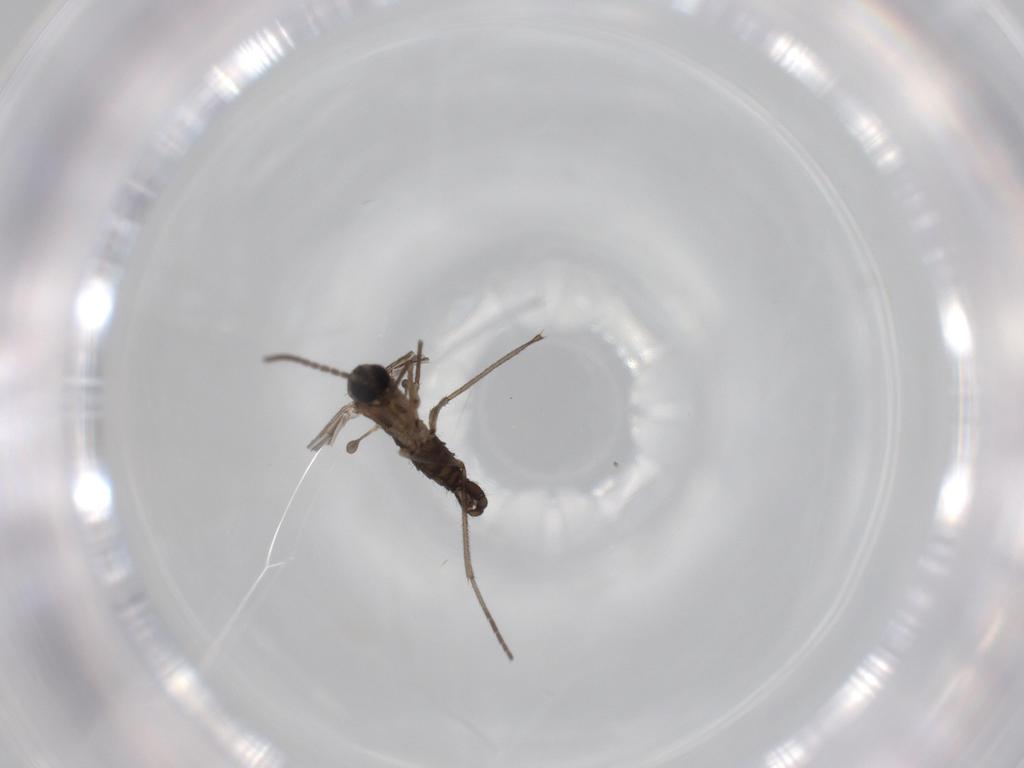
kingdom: Animalia
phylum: Arthropoda
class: Insecta
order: Diptera
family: Sciaridae
